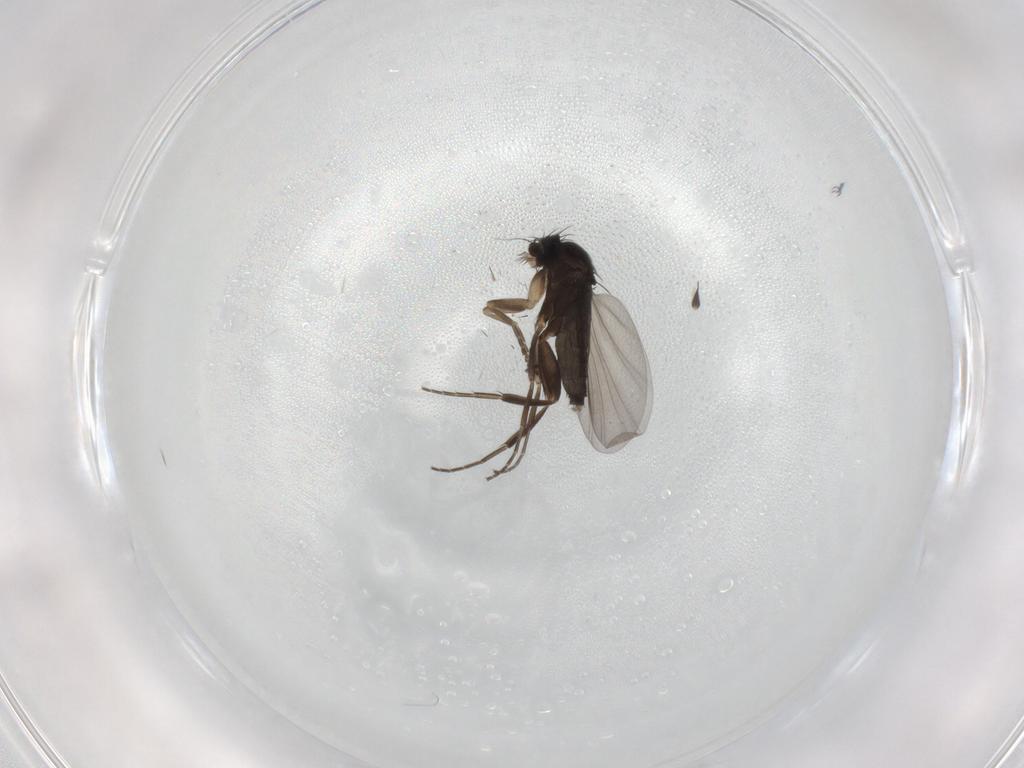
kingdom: Animalia
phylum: Arthropoda
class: Insecta
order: Diptera
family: Phoridae
